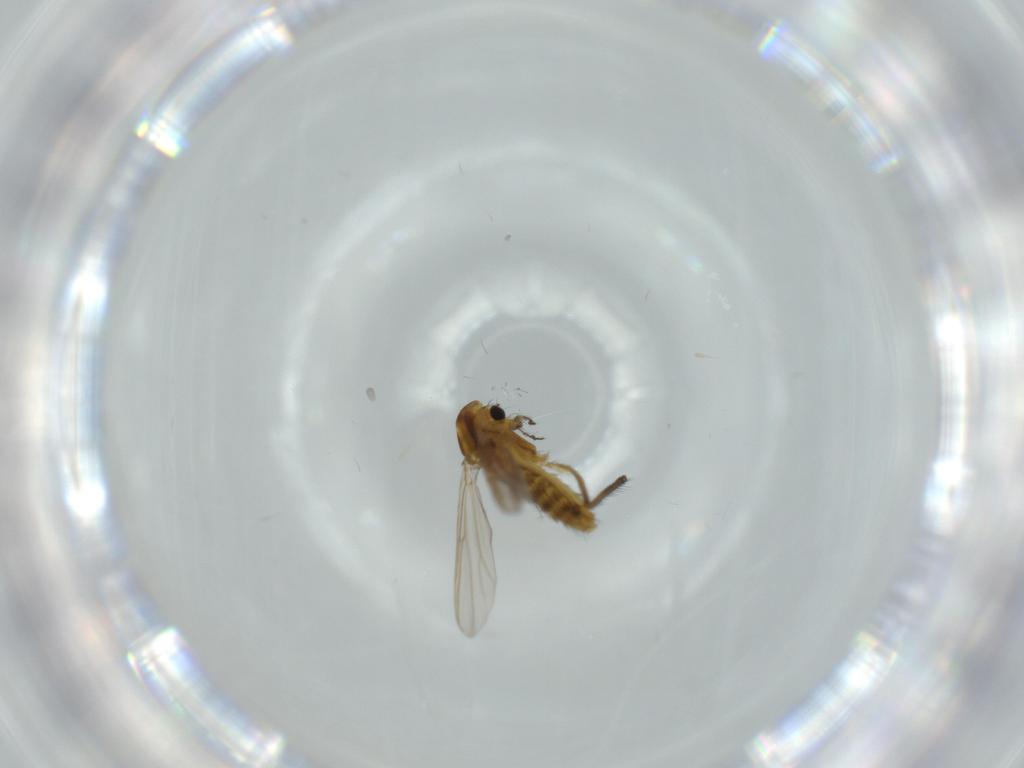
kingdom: Animalia
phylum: Arthropoda
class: Insecta
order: Diptera
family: Chironomidae
